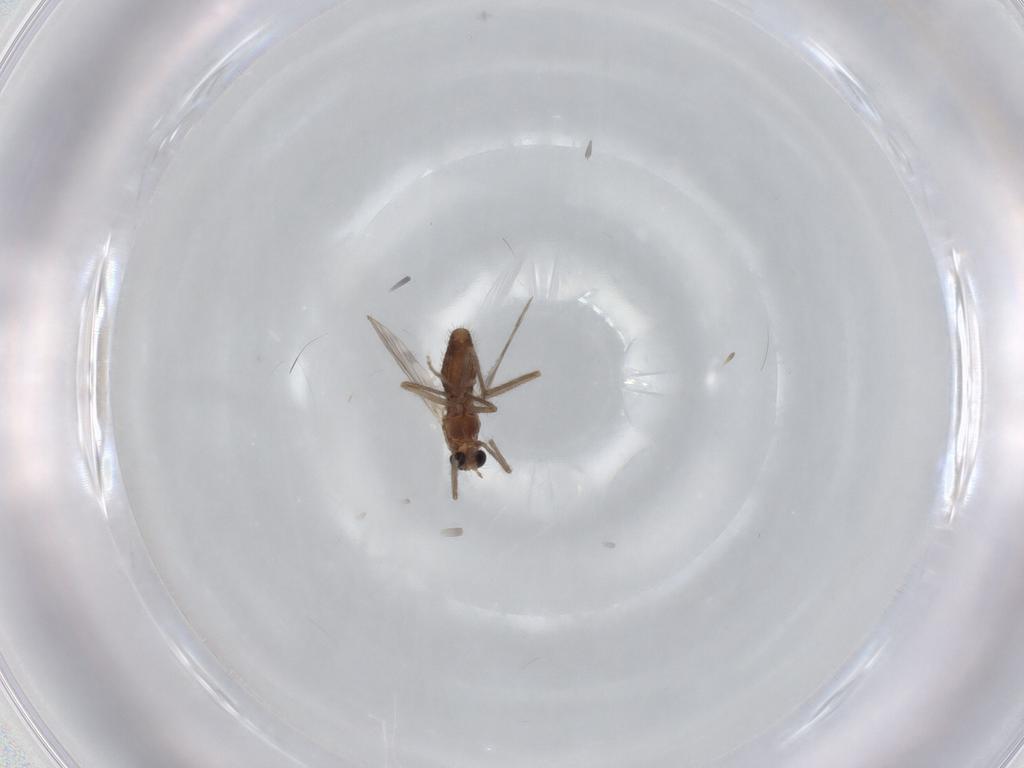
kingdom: Animalia
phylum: Arthropoda
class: Insecta
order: Diptera
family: Chironomidae
